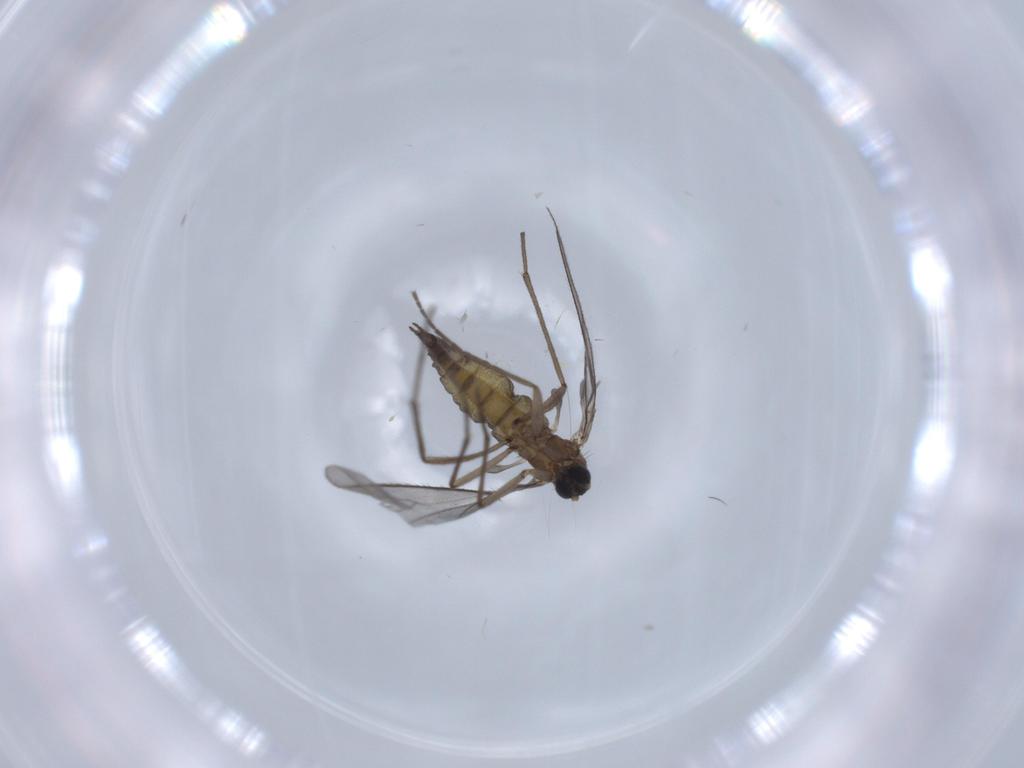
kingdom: Animalia
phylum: Arthropoda
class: Insecta
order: Diptera
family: Sciaridae
